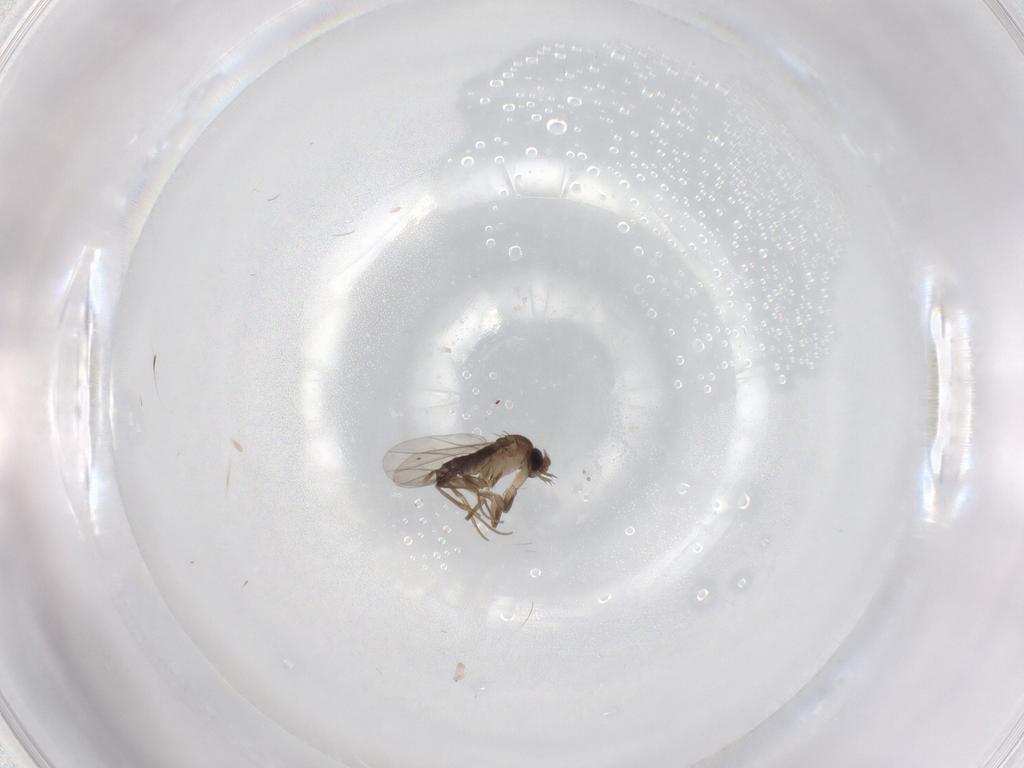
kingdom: Animalia
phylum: Arthropoda
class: Insecta
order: Diptera
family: Phoridae
